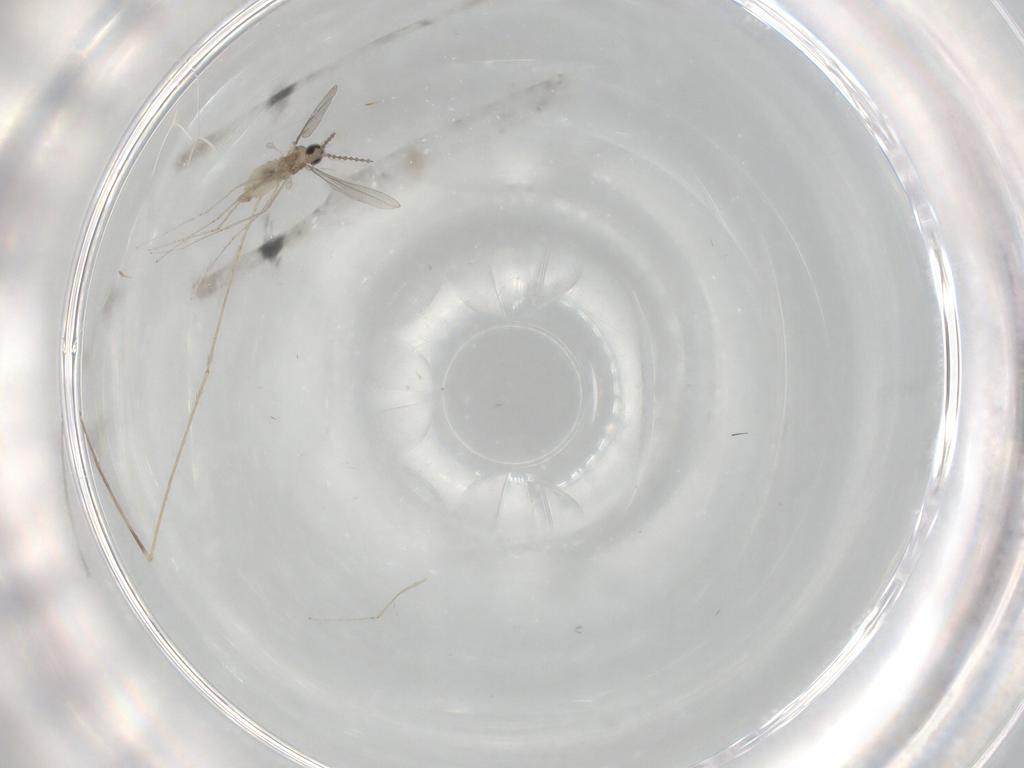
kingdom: Animalia
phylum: Arthropoda
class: Insecta
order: Diptera
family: Limoniidae
